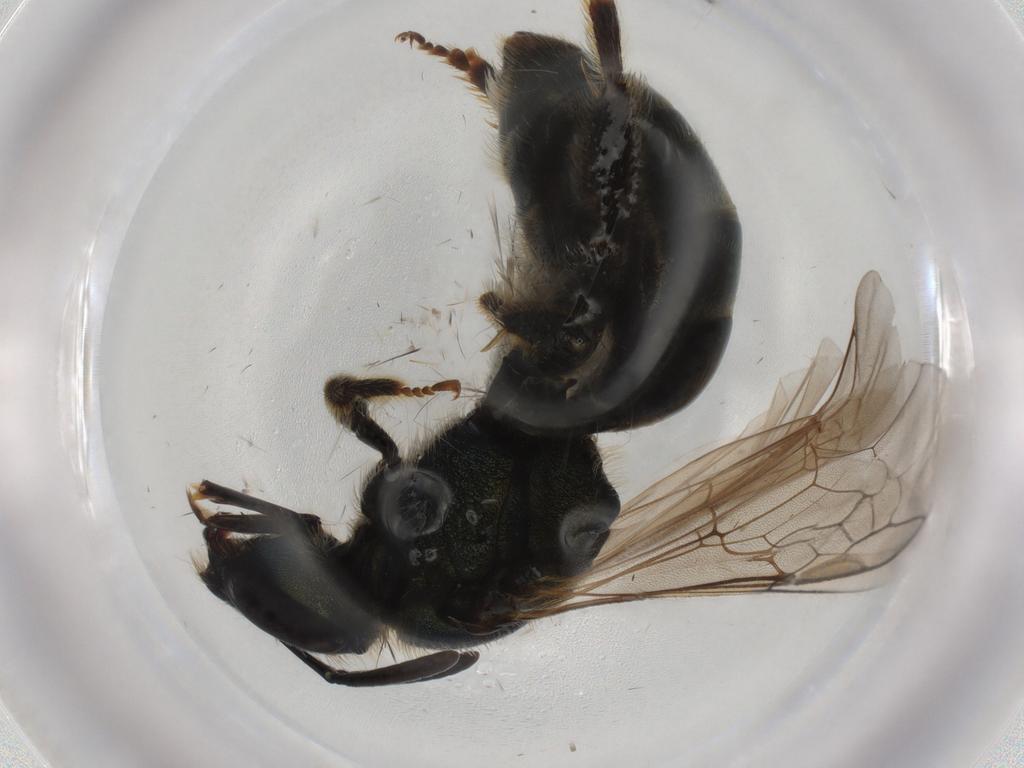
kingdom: Animalia
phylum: Arthropoda
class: Insecta
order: Hymenoptera
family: Halictidae
